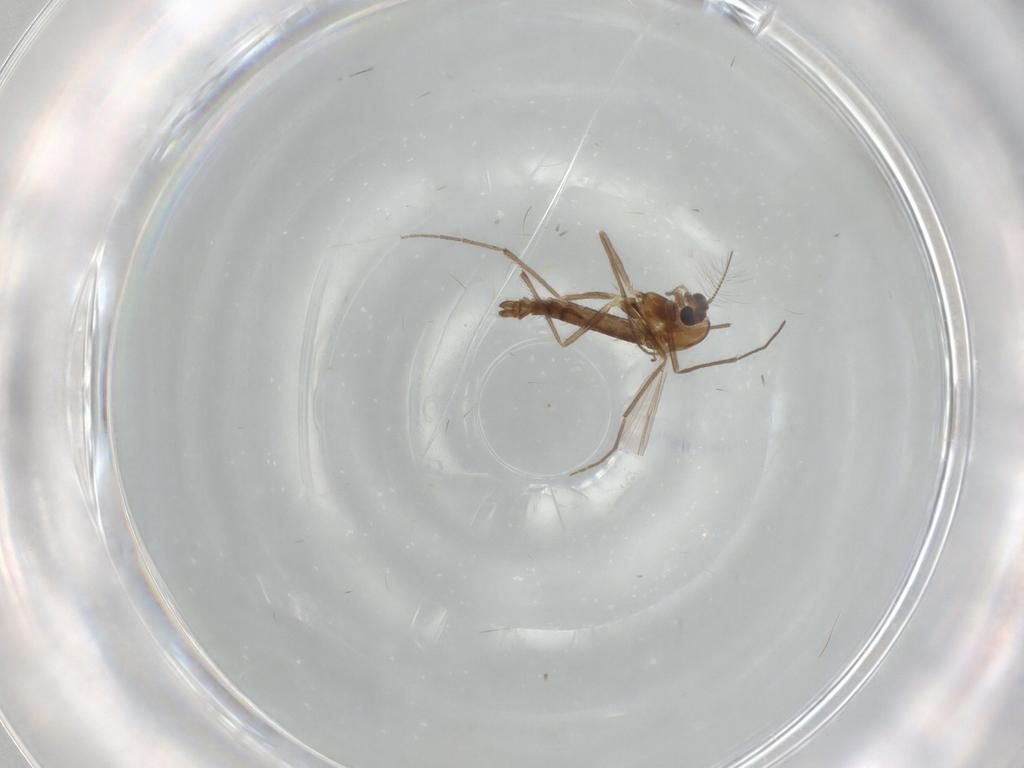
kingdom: Animalia
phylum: Arthropoda
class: Insecta
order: Diptera
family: Chironomidae
